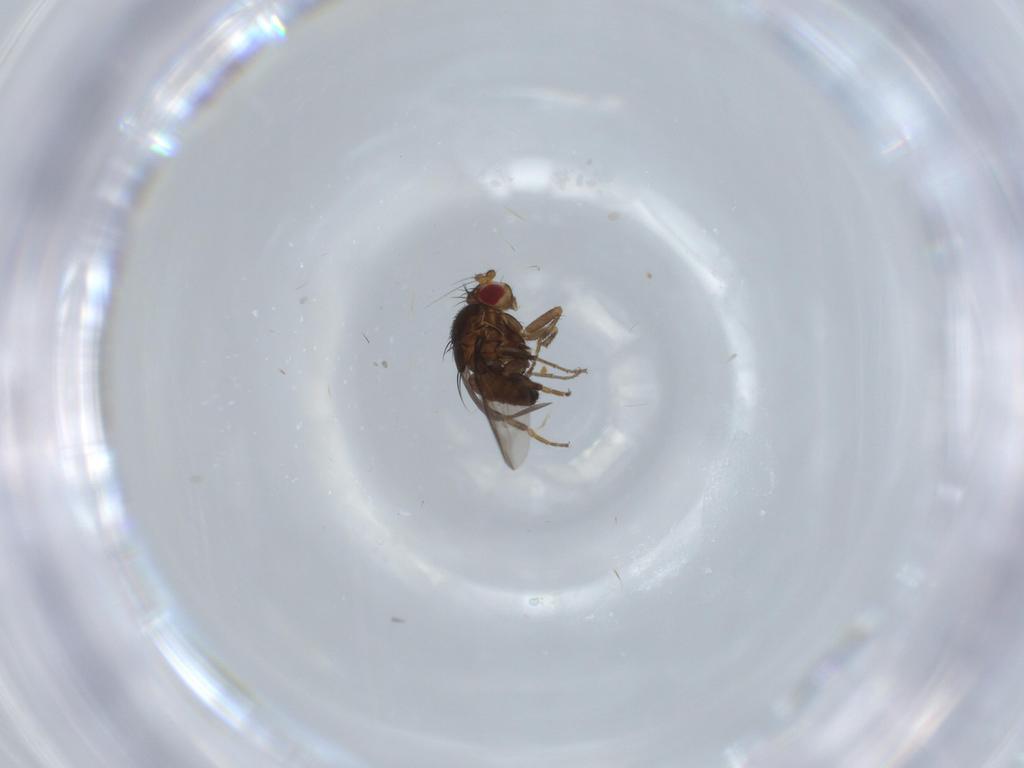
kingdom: Animalia
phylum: Arthropoda
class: Insecta
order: Diptera
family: Sphaeroceridae
